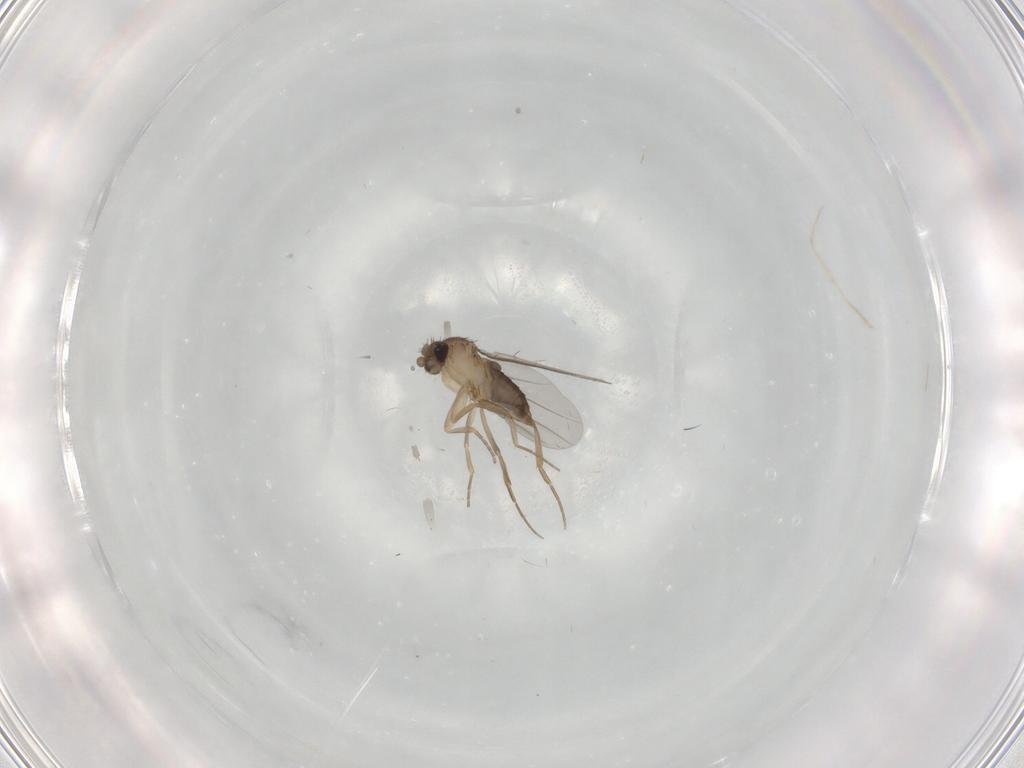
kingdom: Animalia
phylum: Arthropoda
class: Insecta
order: Diptera
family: Phoridae
